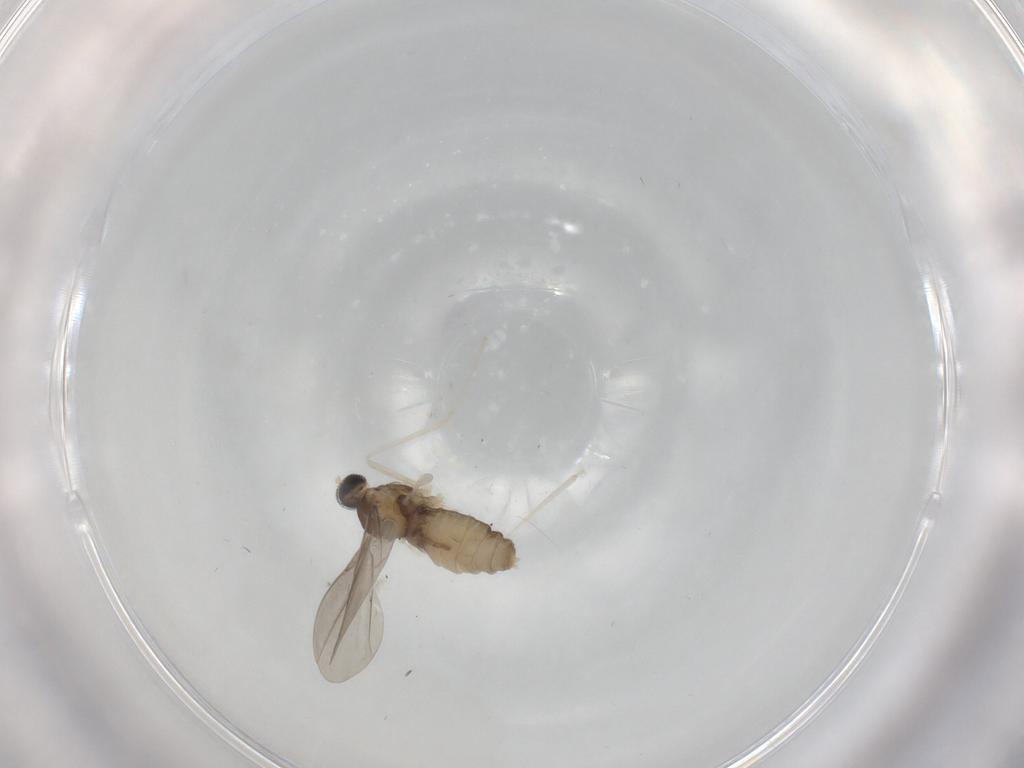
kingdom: Animalia
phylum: Arthropoda
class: Insecta
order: Diptera
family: Cecidomyiidae
